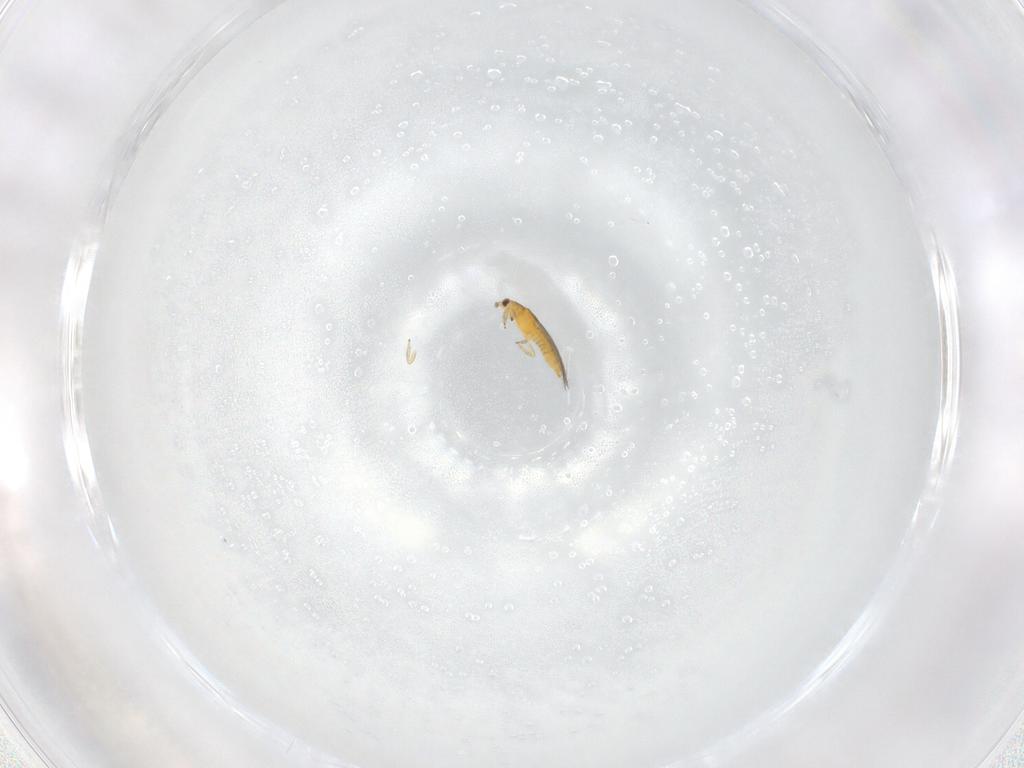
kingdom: Animalia
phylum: Arthropoda
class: Insecta
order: Thysanoptera
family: Thripidae
